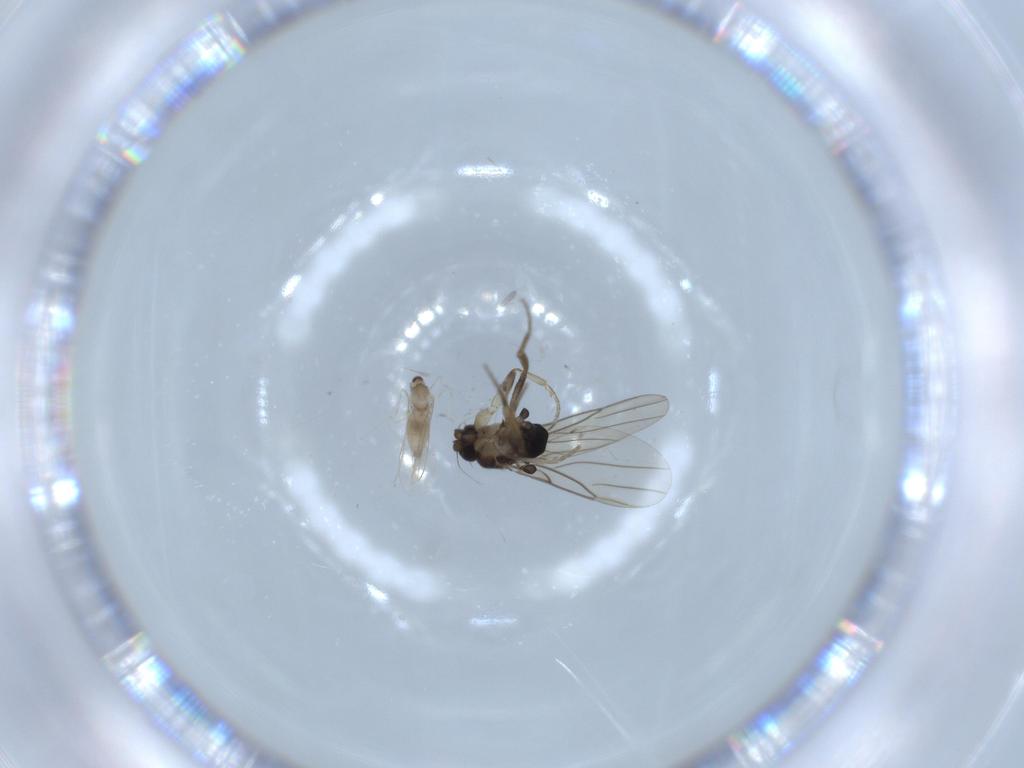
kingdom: Animalia
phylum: Arthropoda
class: Insecta
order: Diptera
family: Cecidomyiidae
